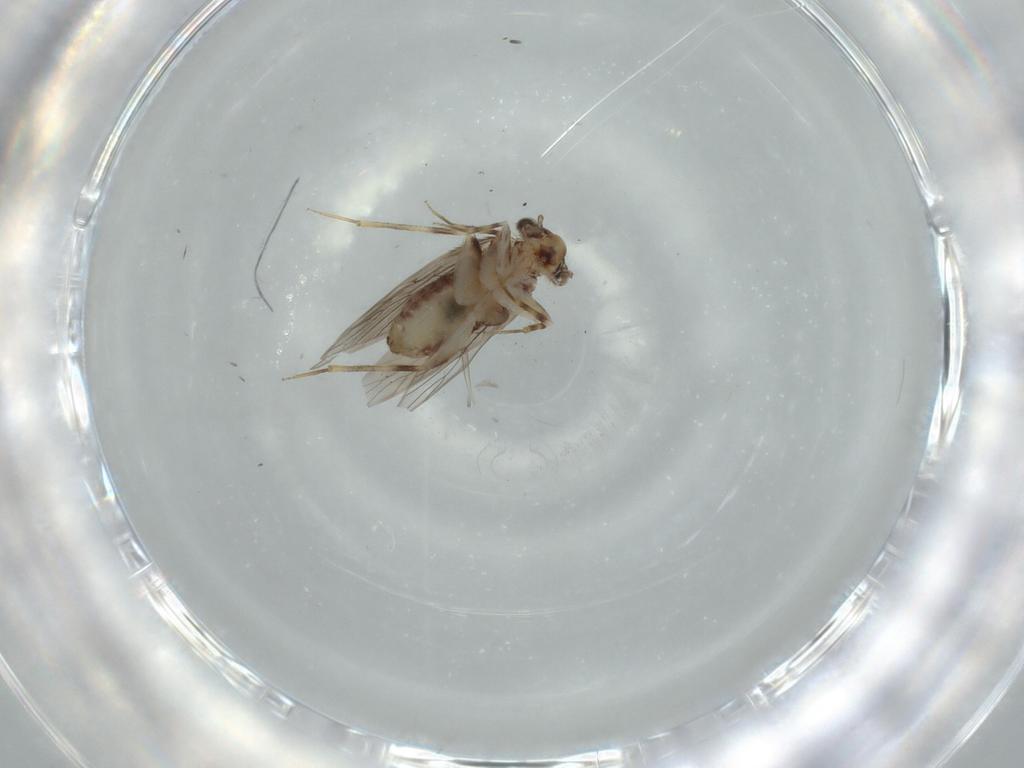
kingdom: Animalia
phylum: Arthropoda
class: Insecta
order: Psocodea
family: Lepidopsocidae
